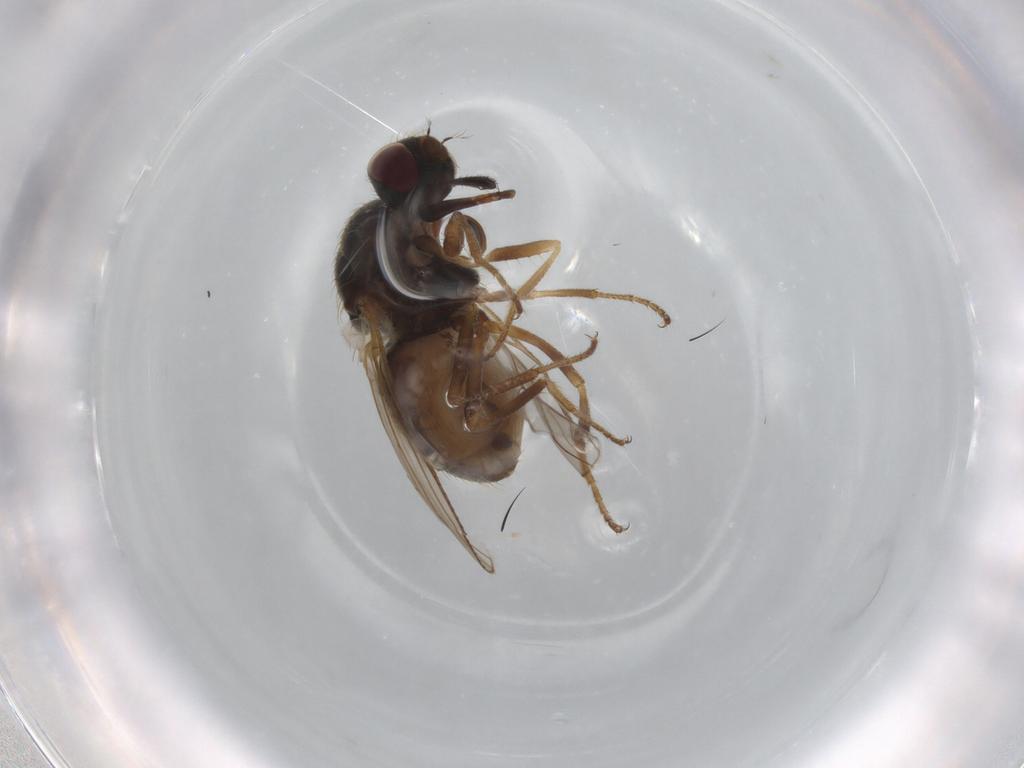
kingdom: Animalia
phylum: Arthropoda
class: Insecta
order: Diptera
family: Muscidae
